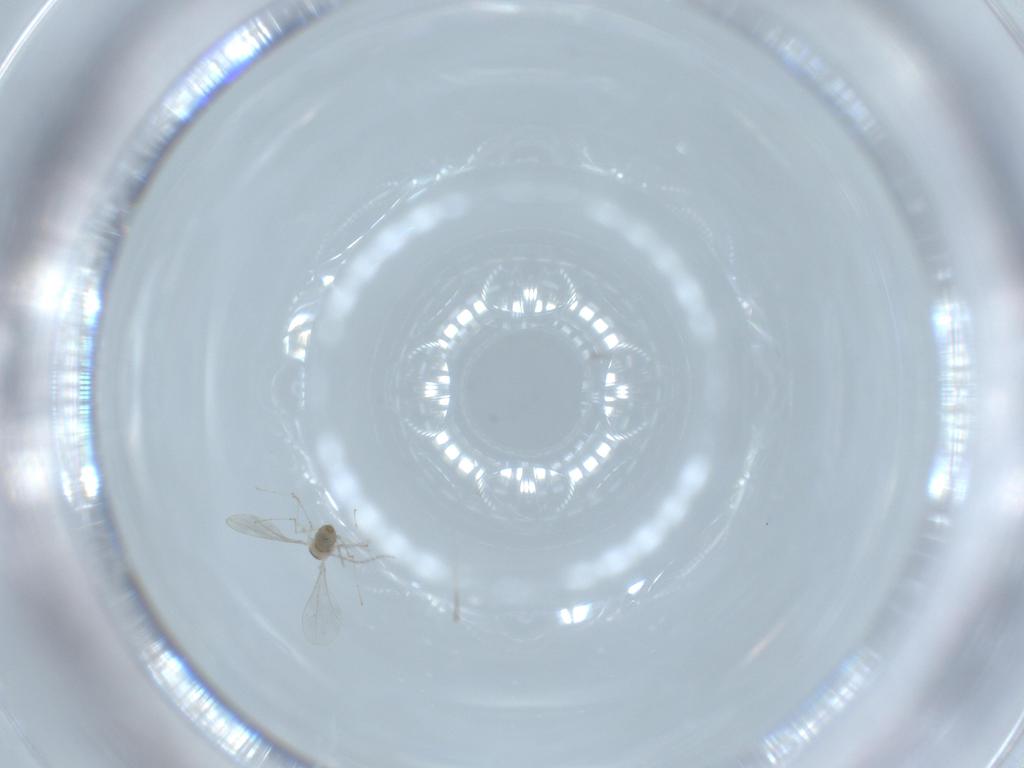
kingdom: Animalia
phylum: Arthropoda
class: Insecta
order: Diptera
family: Cecidomyiidae
